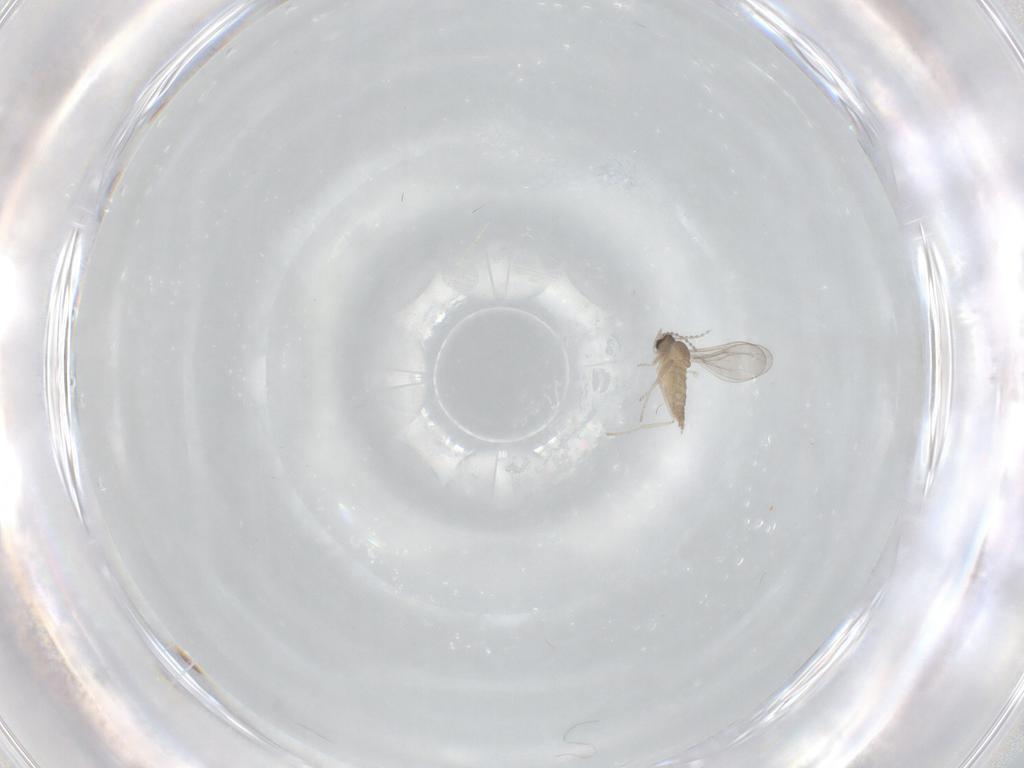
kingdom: Animalia
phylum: Arthropoda
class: Insecta
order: Diptera
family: Cecidomyiidae
